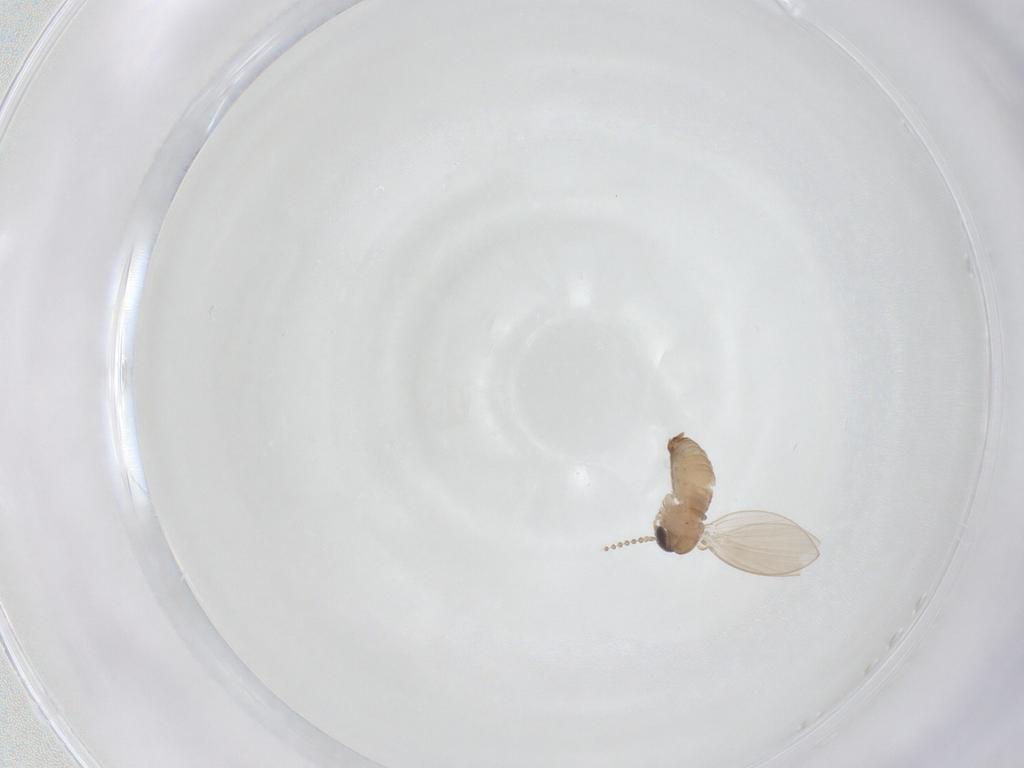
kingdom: Animalia
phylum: Arthropoda
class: Insecta
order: Diptera
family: Psychodidae
